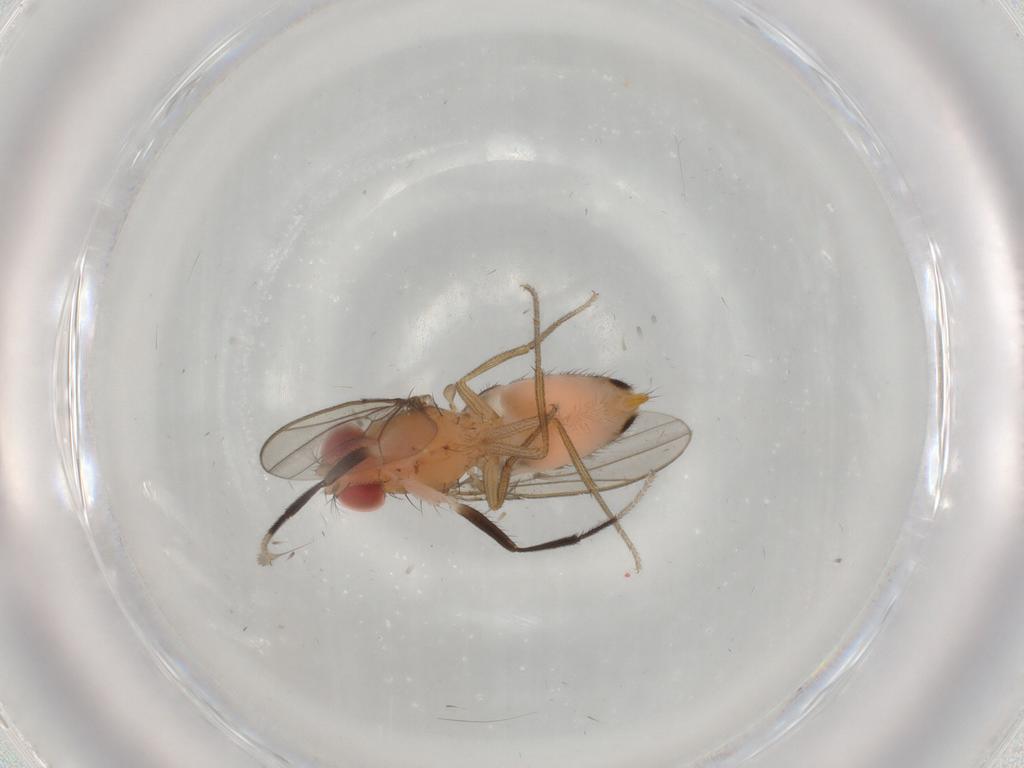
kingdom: Animalia
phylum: Arthropoda
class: Insecta
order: Diptera
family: Drosophilidae
